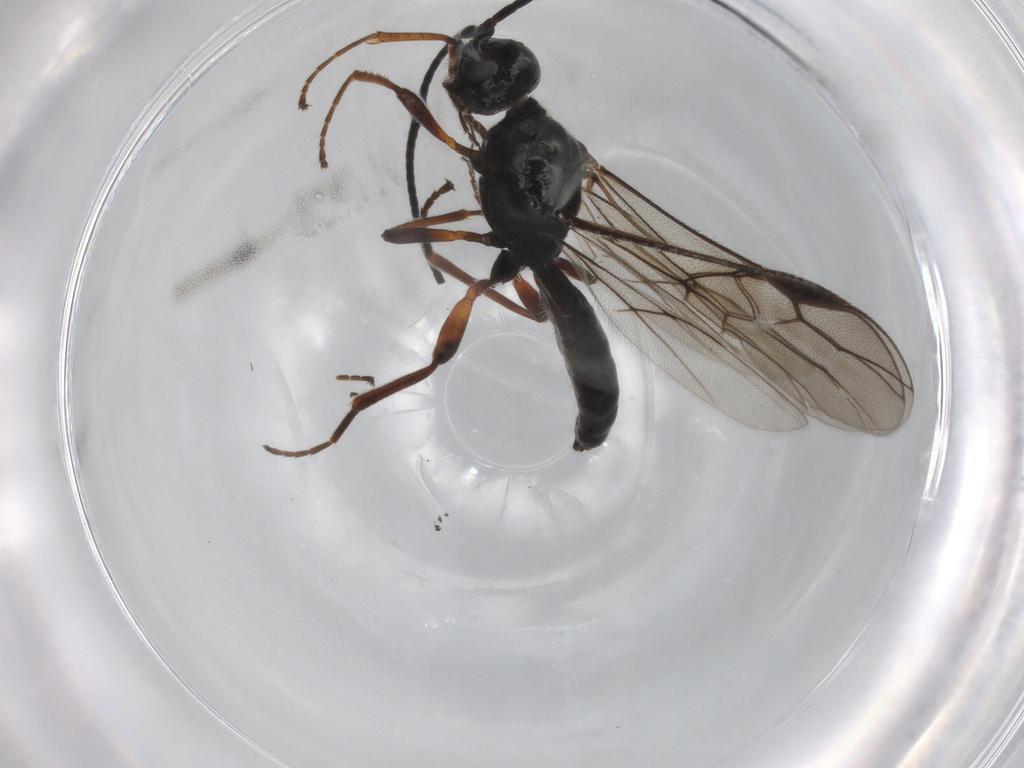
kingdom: Animalia
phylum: Arthropoda
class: Insecta
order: Hymenoptera
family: Braconidae
